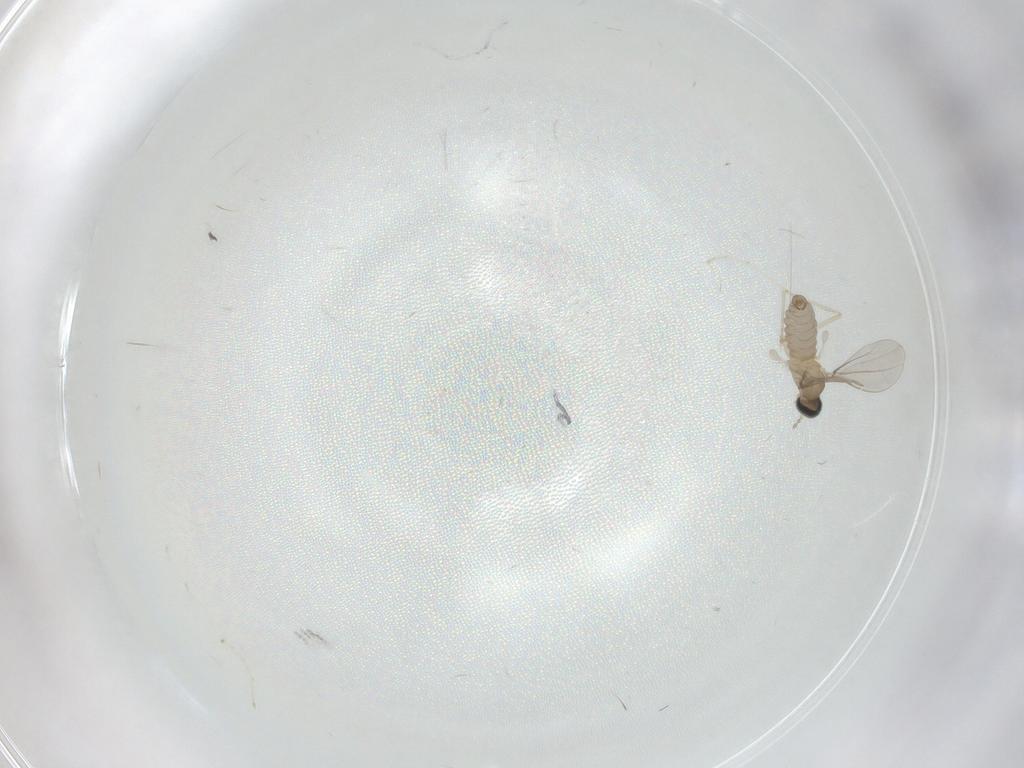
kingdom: Animalia
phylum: Arthropoda
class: Insecta
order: Diptera
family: Cecidomyiidae
